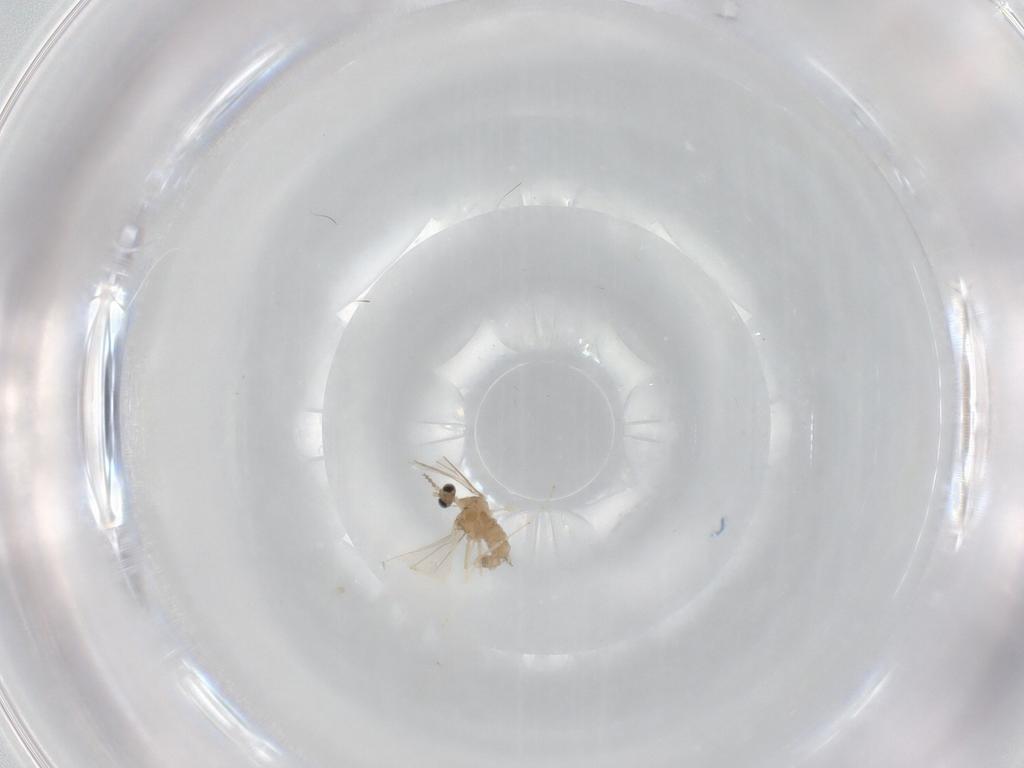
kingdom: Animalia
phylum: Arthropoda
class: Insecta
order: Diptera
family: Cecidomyiidae
